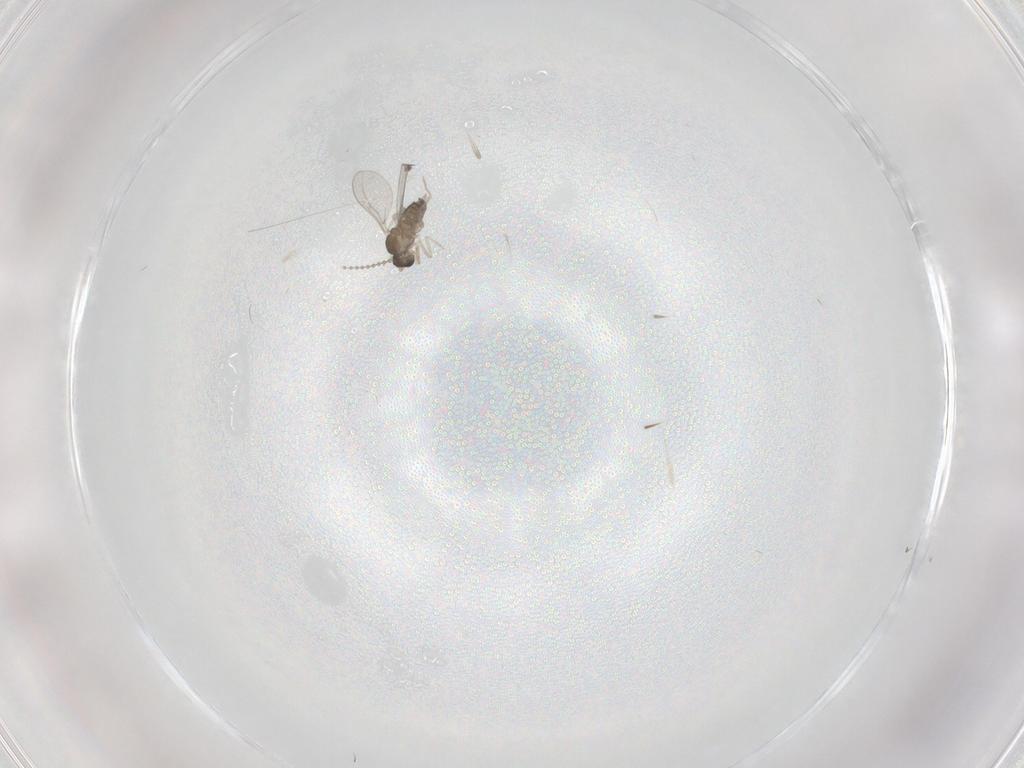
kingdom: Animalia
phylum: Arthropoda
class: Insecta
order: Diptera
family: Cecidomyiidae
